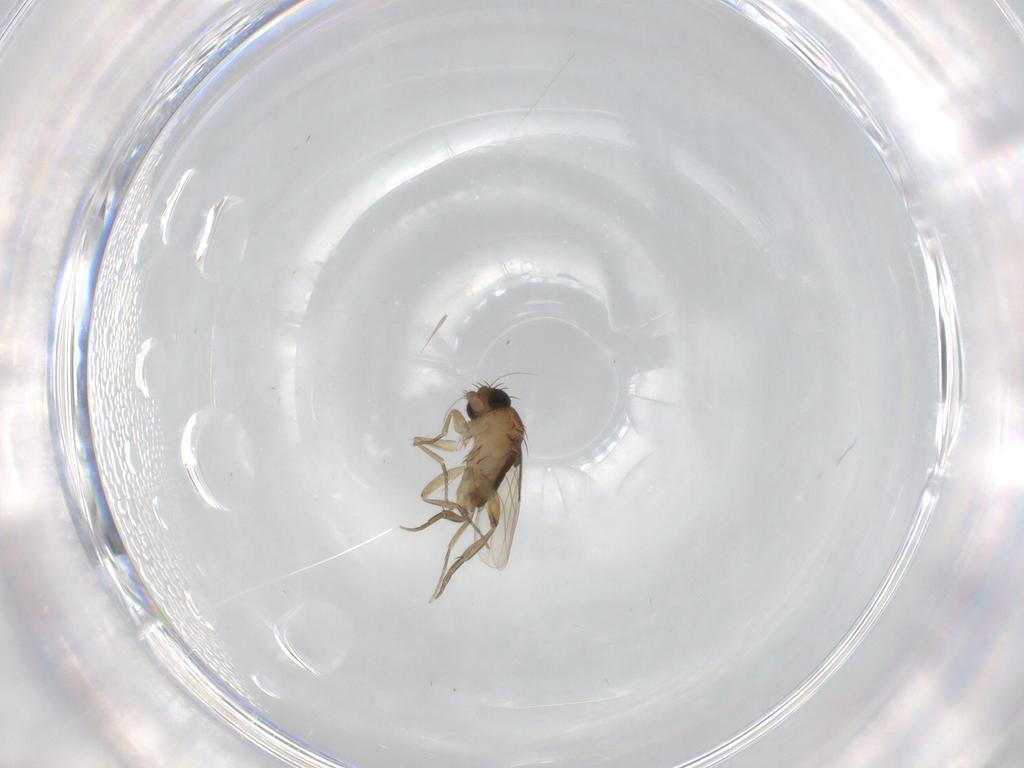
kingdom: Animalia
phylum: Arthropoda
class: Insecta
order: Diptera
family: Phoridae
